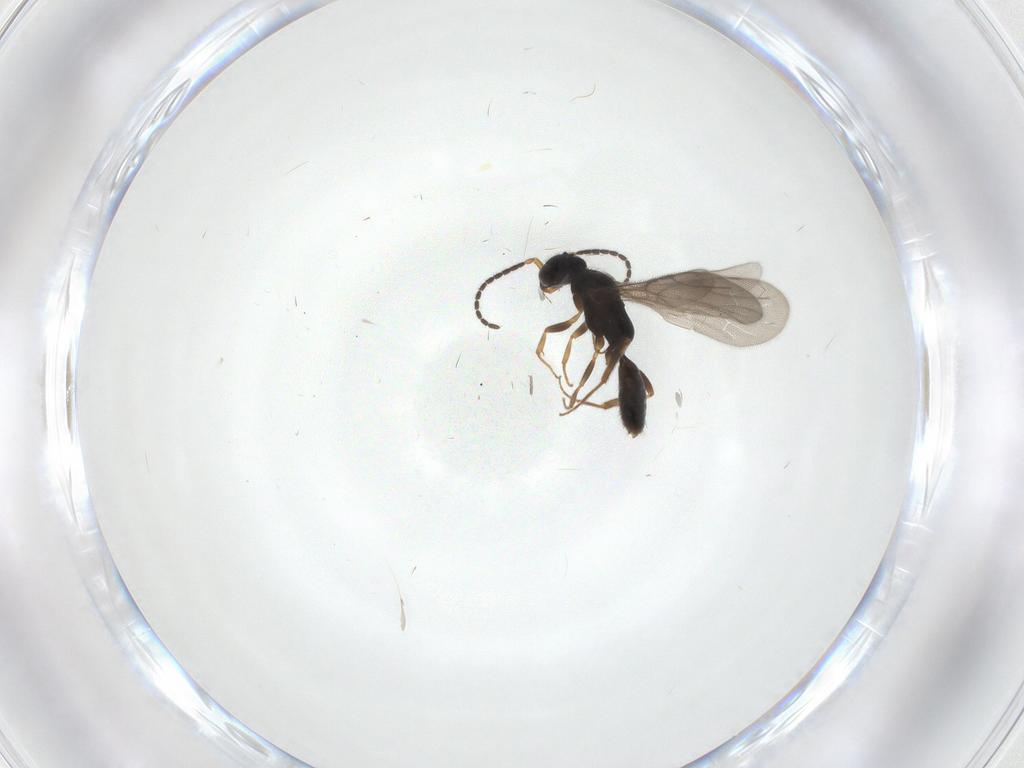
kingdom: Animalia
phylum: Arthropoda
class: Insecta
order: Hymenoptera
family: Bethylidae
